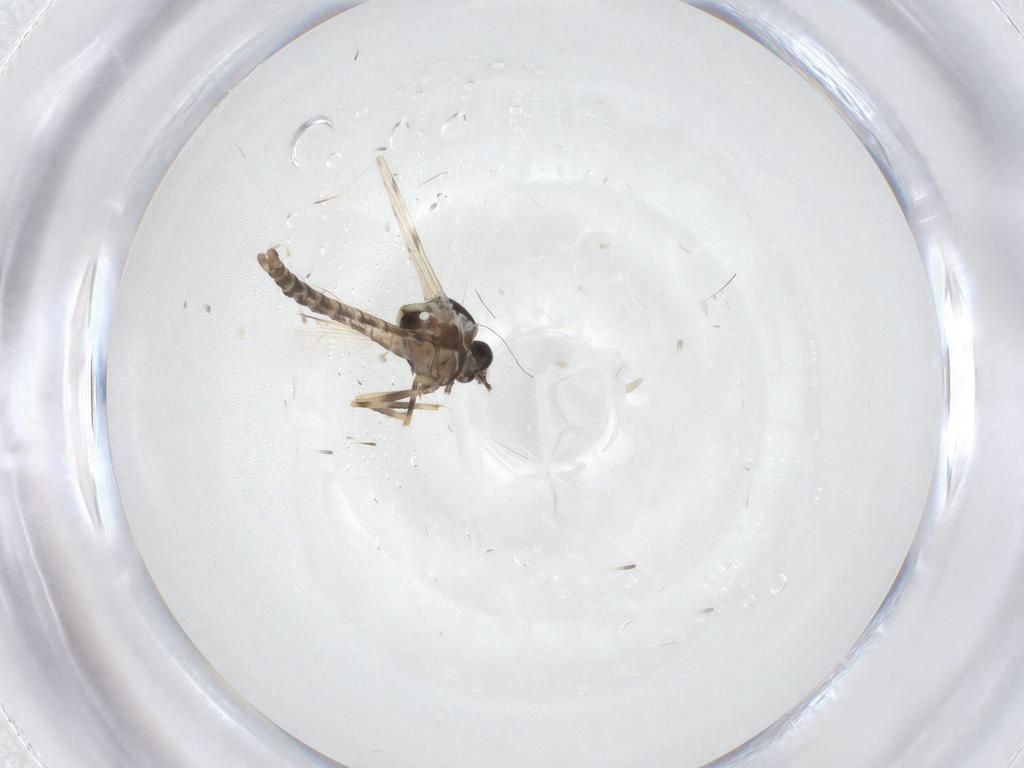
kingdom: Animalia
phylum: Arthropoda
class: Insecta
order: Diptera
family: Ceratopogonidae
